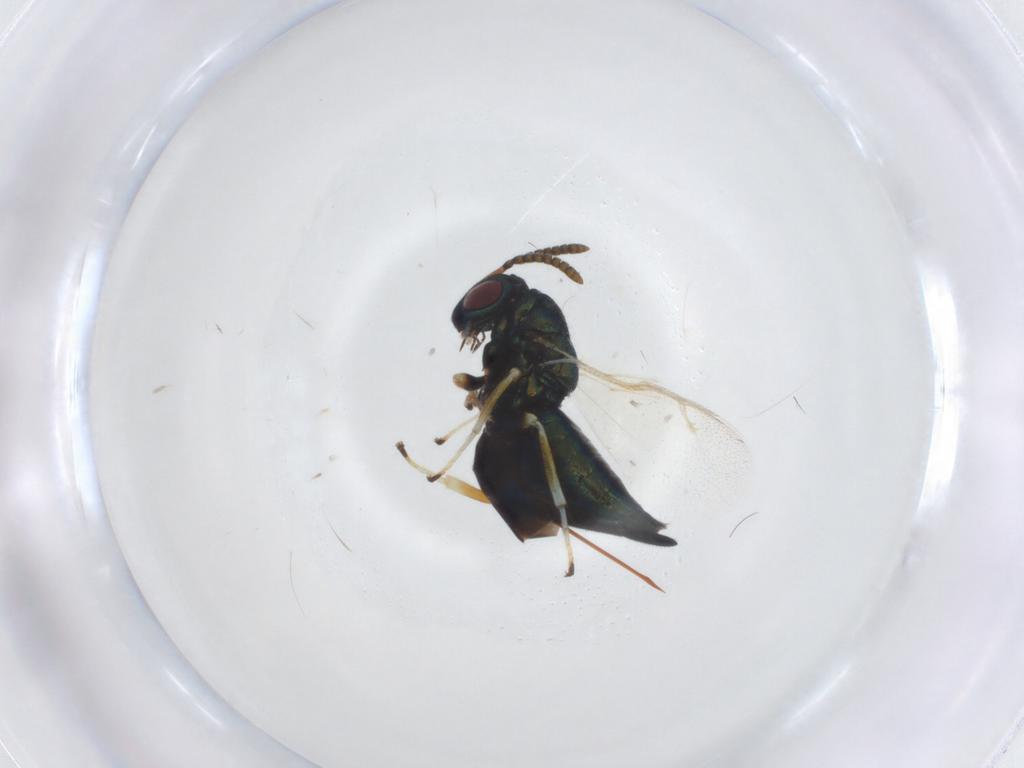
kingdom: Animalia
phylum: Arthropoda
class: Insecta
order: Hymenoptera
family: Pteromalidae
